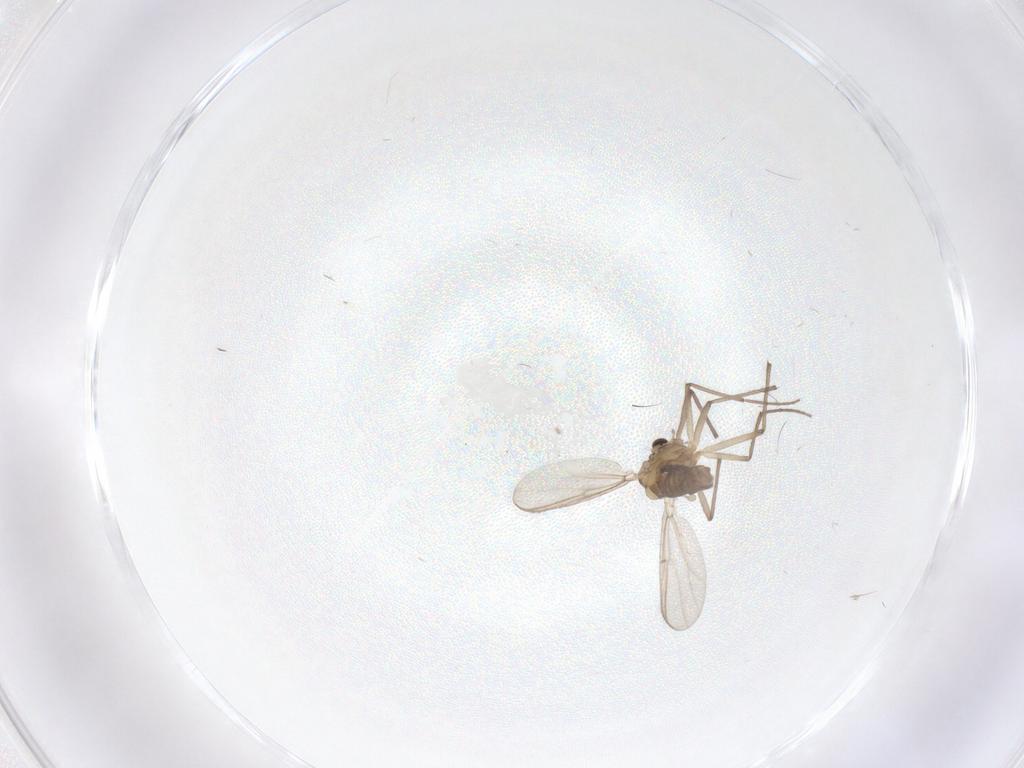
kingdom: Animalia
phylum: Arthropoda
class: Insecta
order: Diptera
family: Chironomidae
